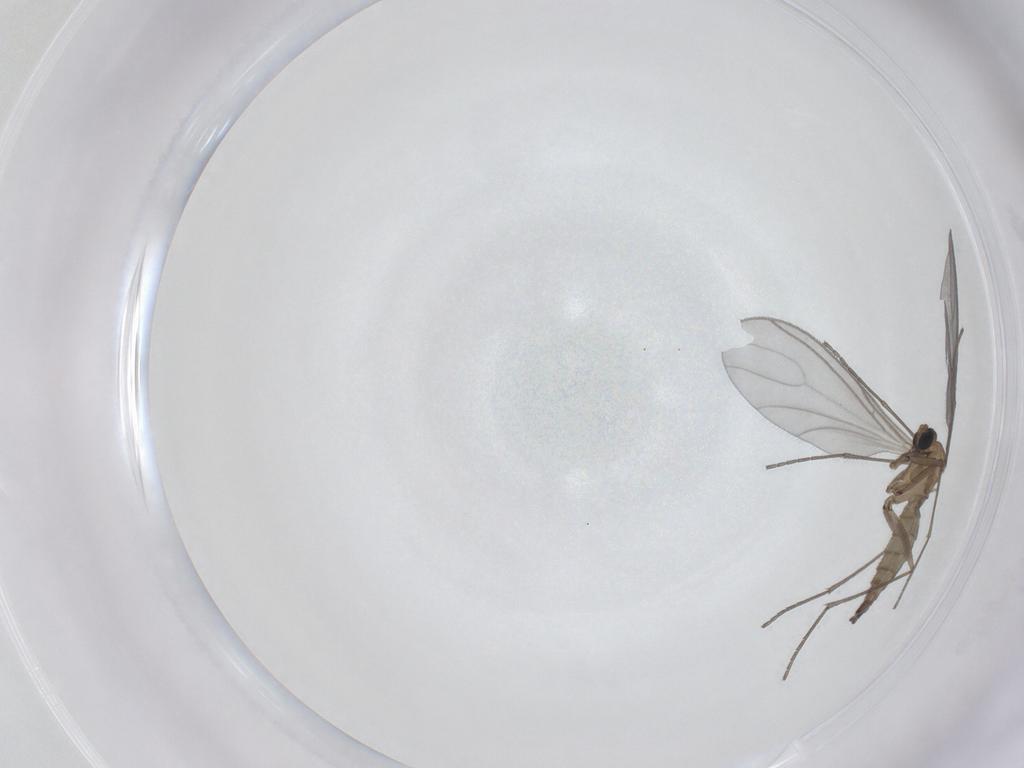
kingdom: Animalia
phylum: Arthropoda
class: Insecta
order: Diptera
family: Sciaridae
